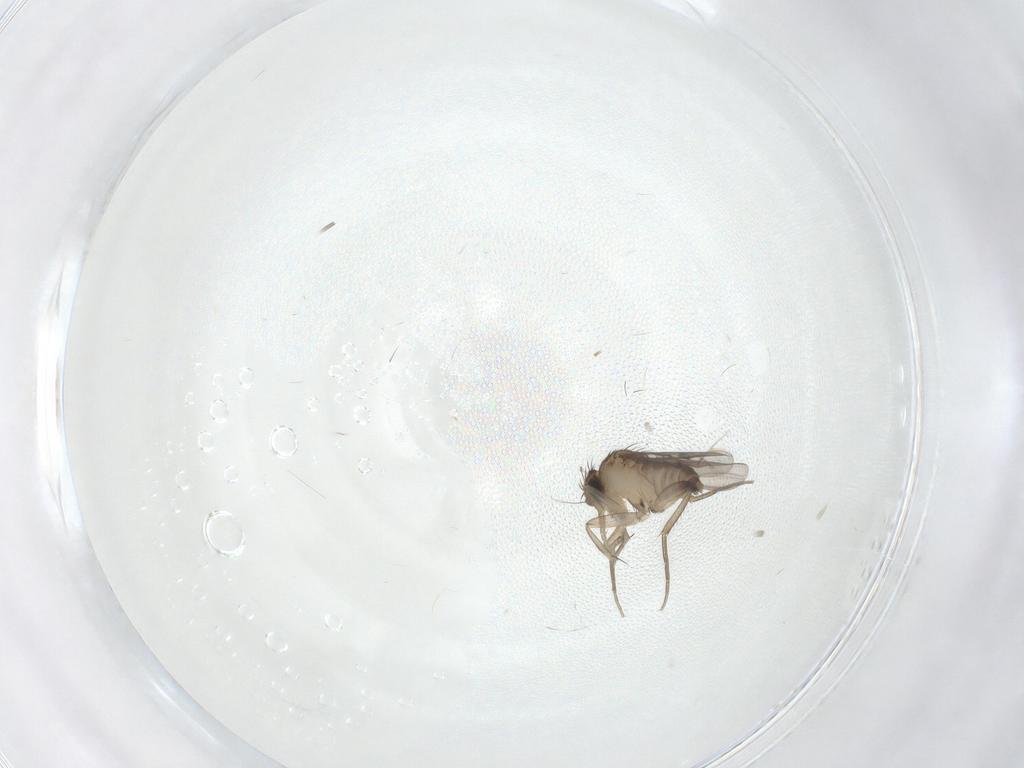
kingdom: Animalia
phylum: Arthropoda
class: Insecta
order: Diptera
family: Phoridae
